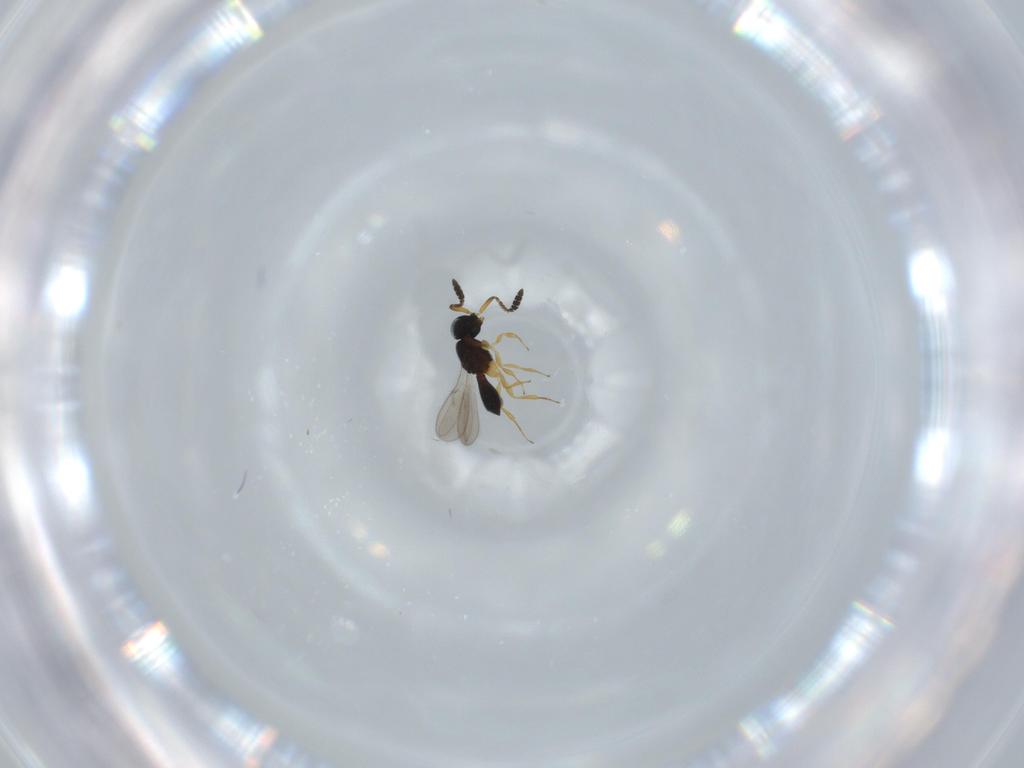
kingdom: Animalia
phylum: Arthropoda
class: Insecta
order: Hymenoptera
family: Scelionidae
